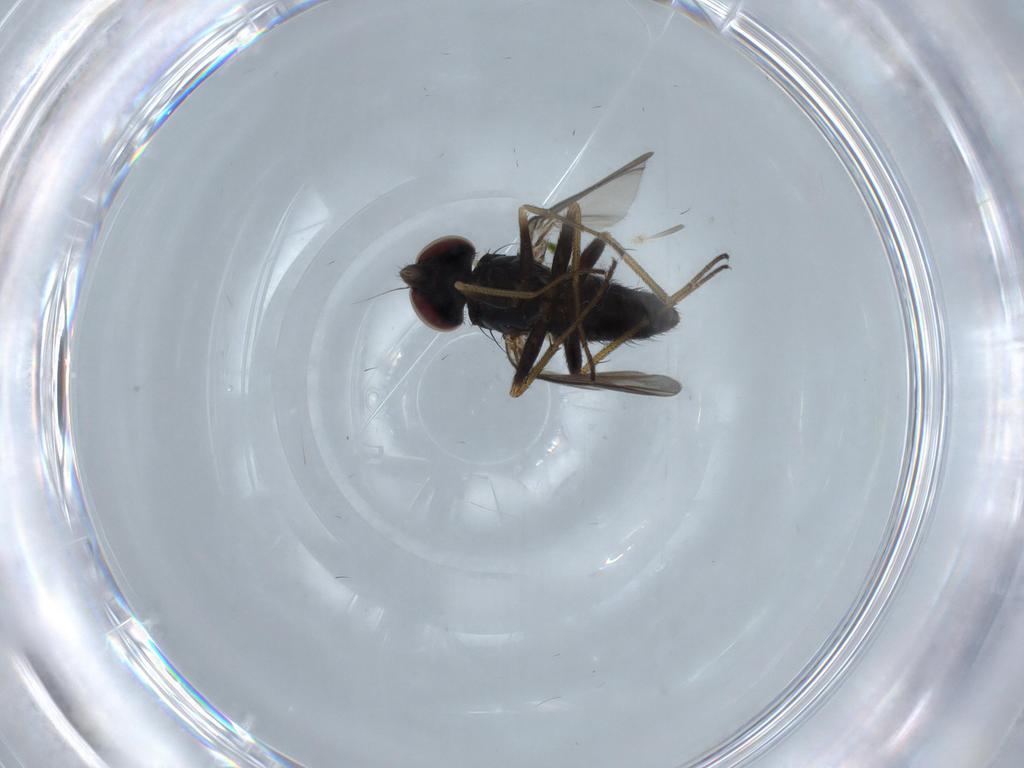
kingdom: Animalia
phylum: Arthropoda
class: Insecta
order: Diptera
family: Dolichopodidae
